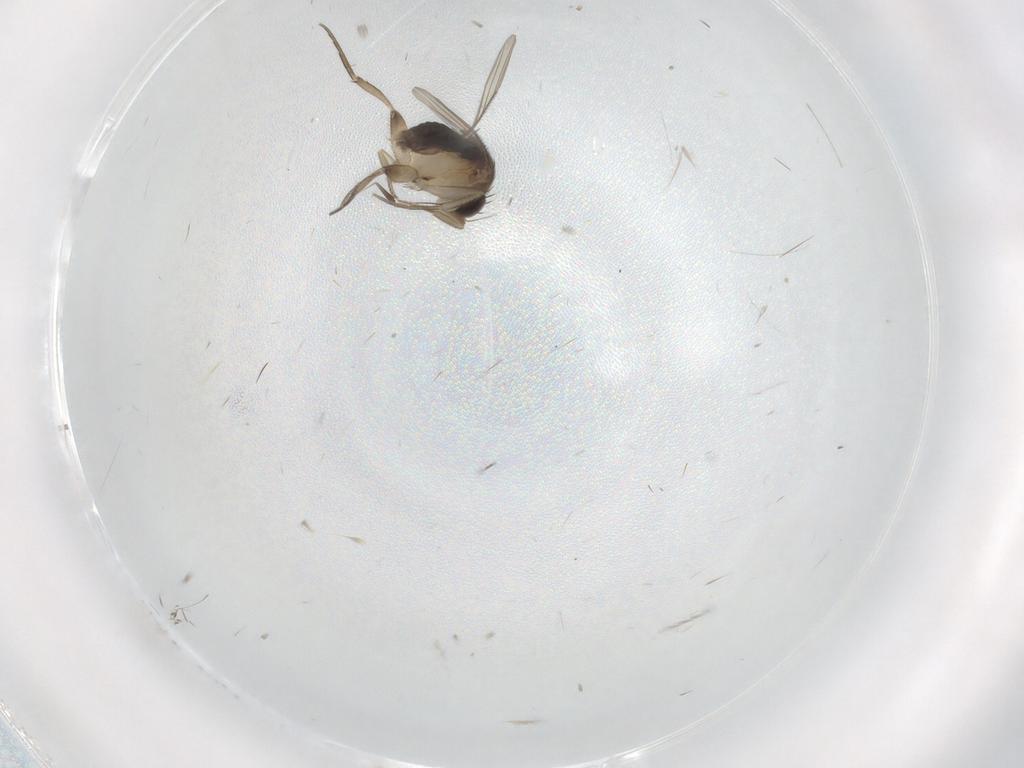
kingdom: Animalia
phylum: Arthropoda
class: Insecta
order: Diptera
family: Phoridae
